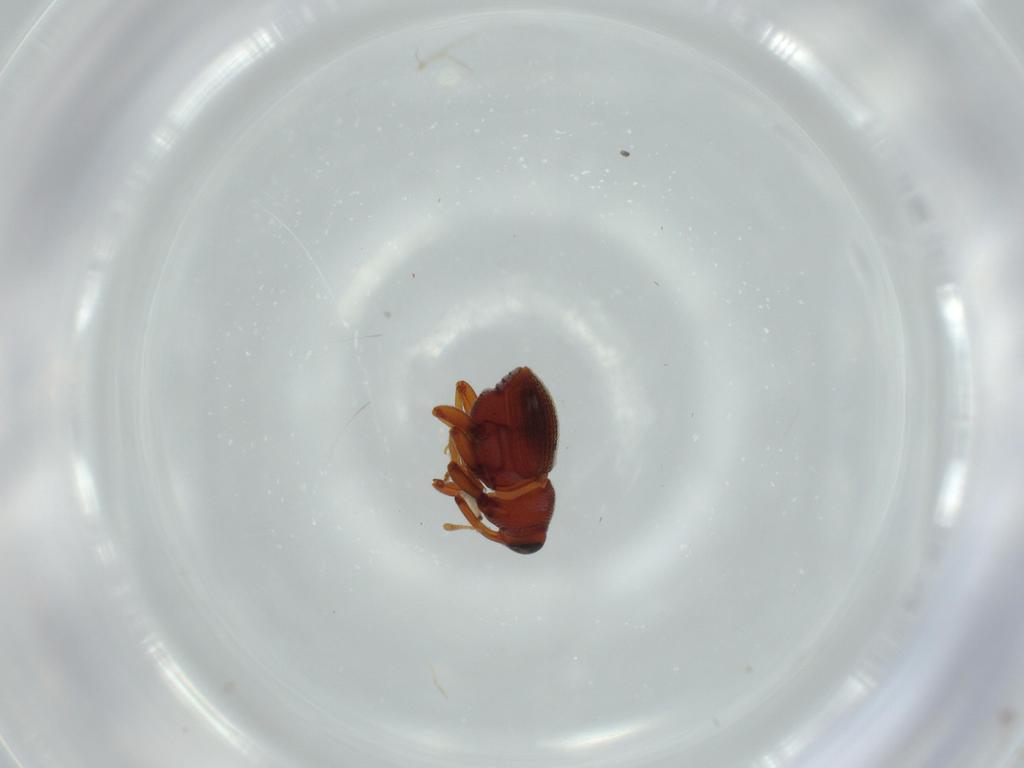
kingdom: Animalia
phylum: Arthropoda
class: Insecta
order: Coleoptera
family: Curculionidae
